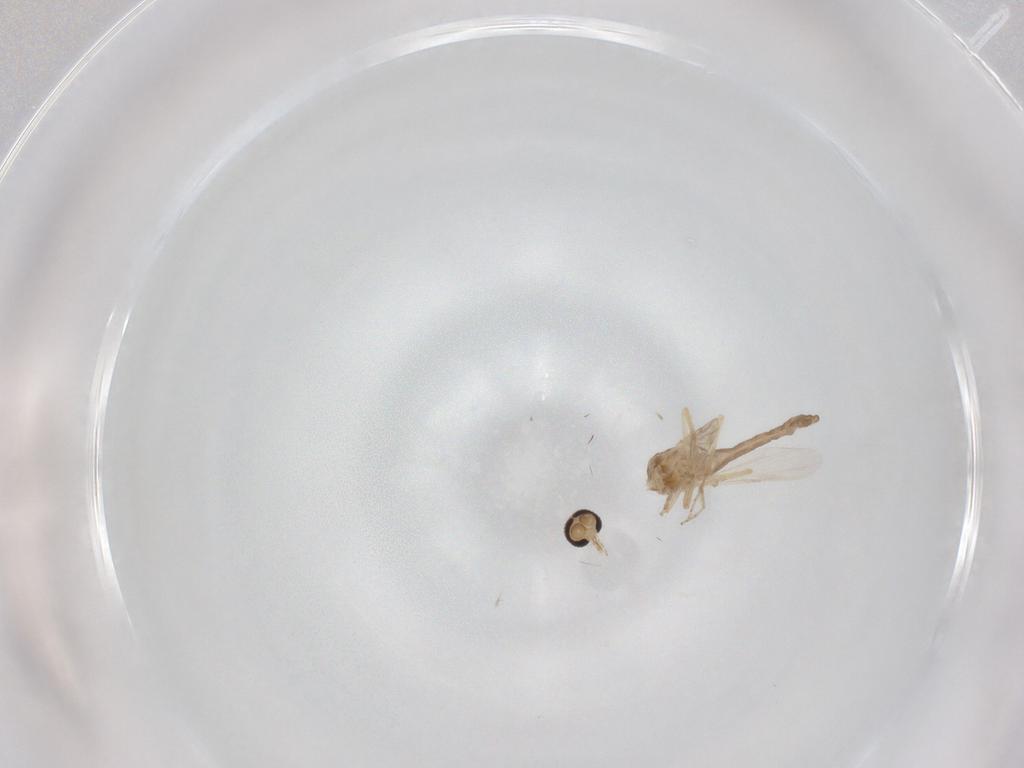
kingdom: Animalia
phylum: Arthropoda
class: Insecta
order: Diptera
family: Ceratopogonidae
